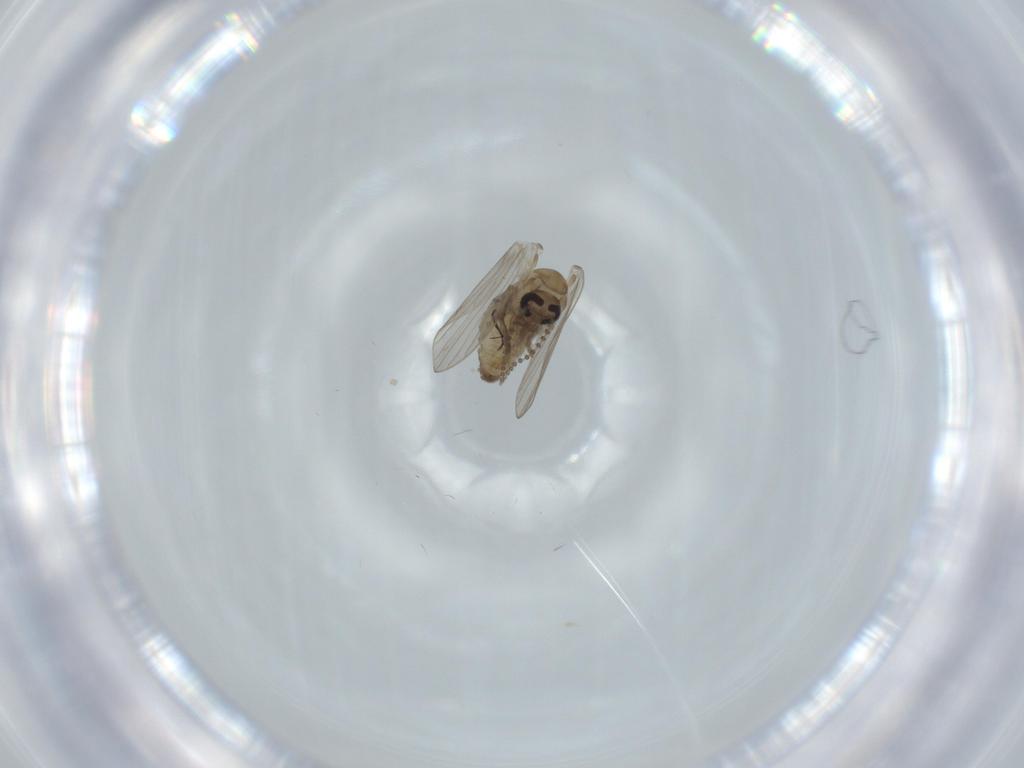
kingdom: Animalia
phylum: Arthropoda
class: Insecta
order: Diptera
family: Psychodidae
